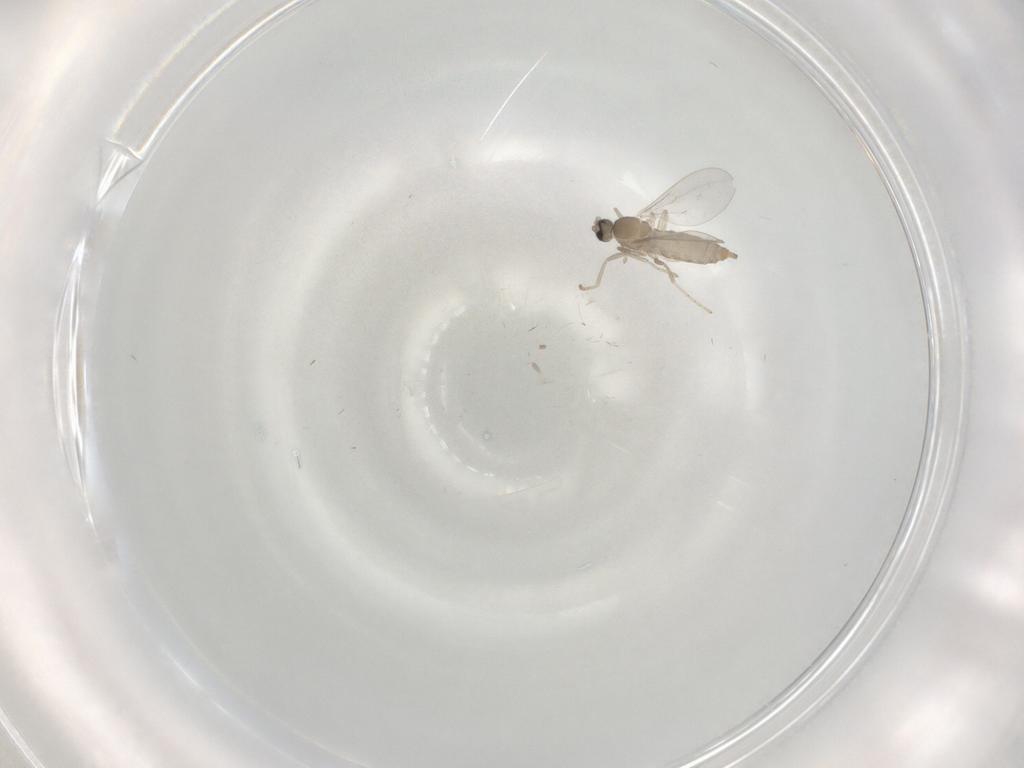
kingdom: Animalia
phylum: Arthropoda
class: Insecta
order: Diptera
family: Cecidomyiidae
